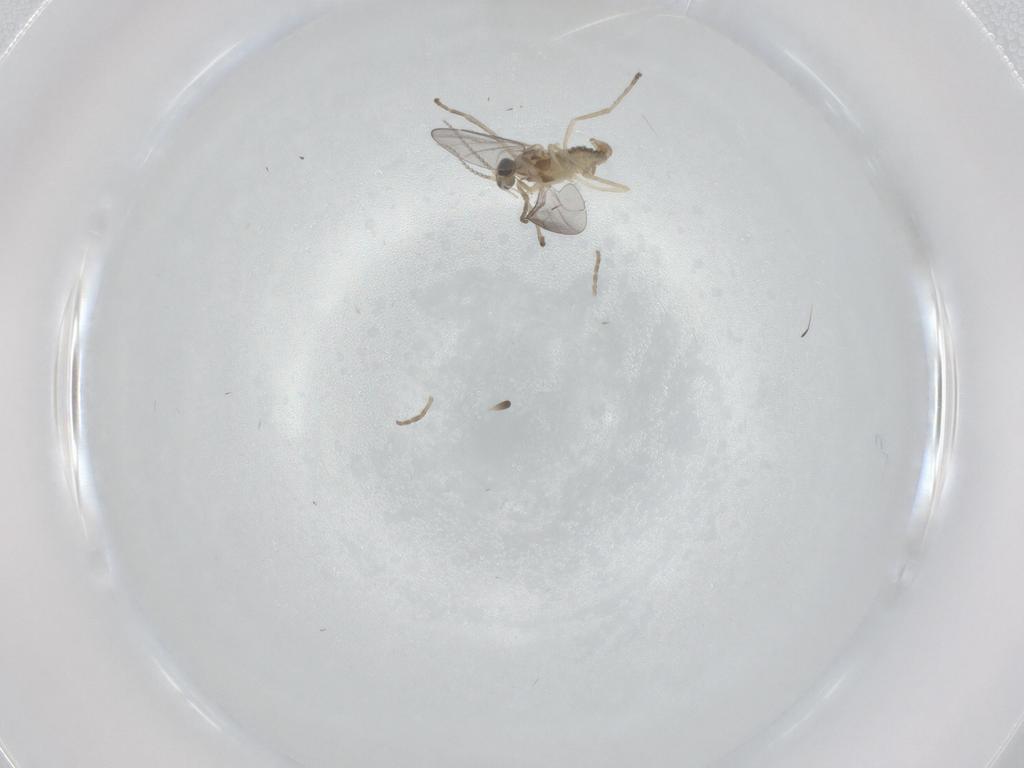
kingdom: Animalia
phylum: Arthropoda
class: Insecta
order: Diptera
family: Cecidomyiidae
